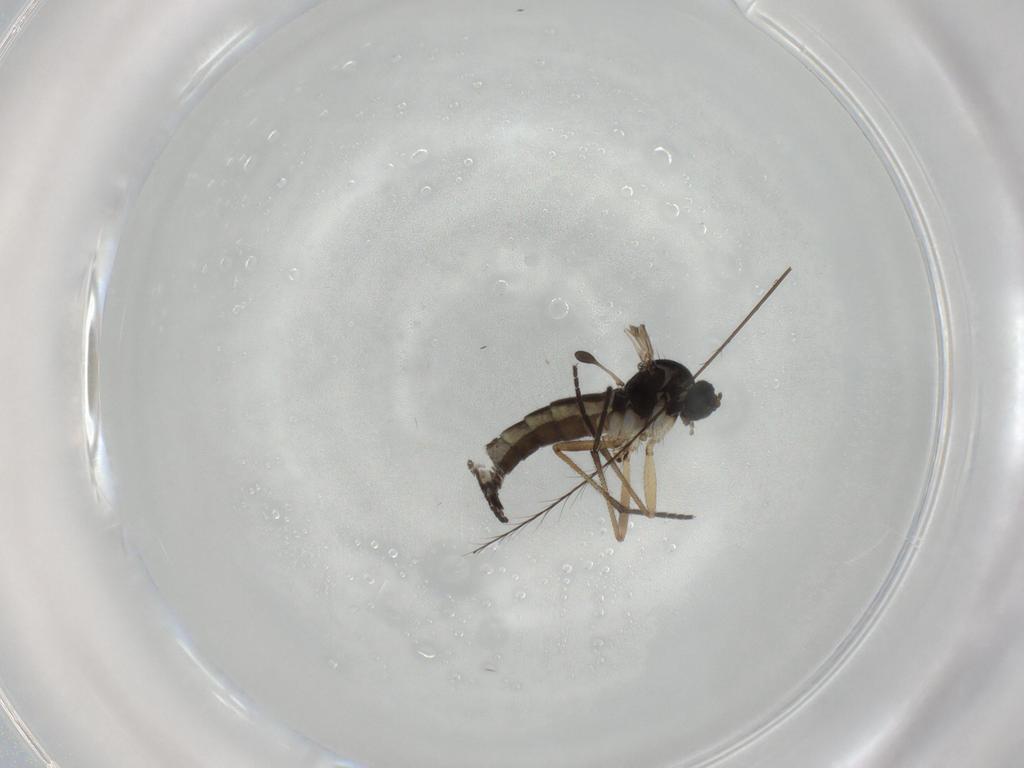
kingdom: Animalia
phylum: Arthropoda
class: Insecta
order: Diptera
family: Sciaridae
